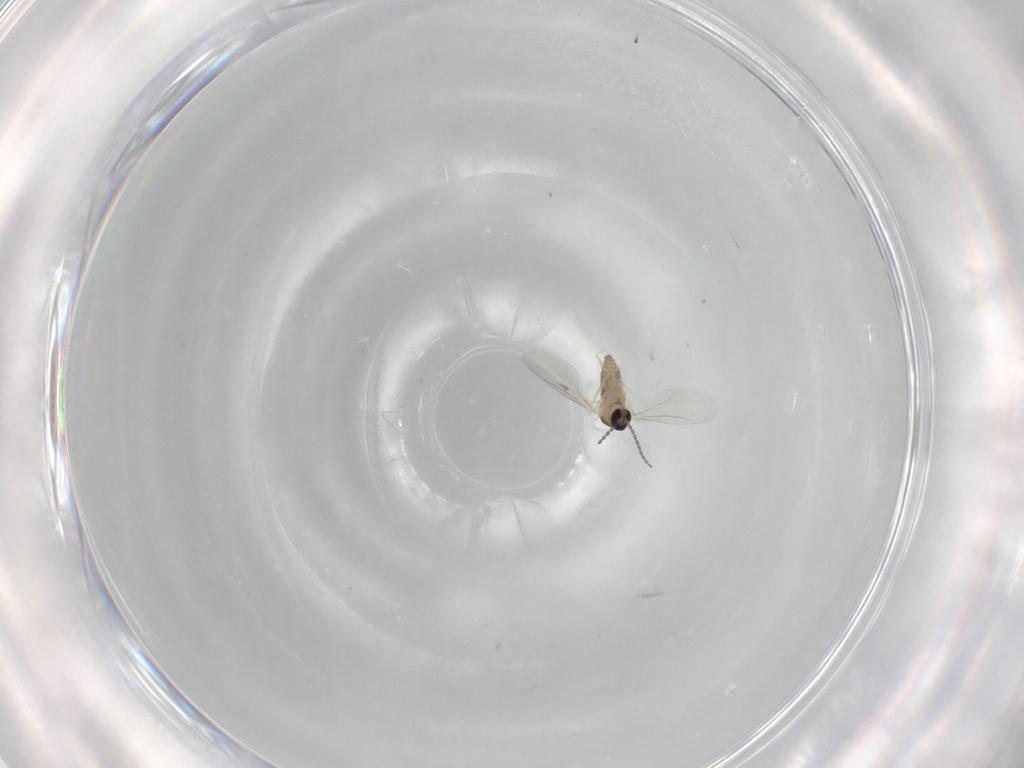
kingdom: Animalia
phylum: Arthropoda
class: Insecta
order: Diptera
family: Cecidomyiidae
